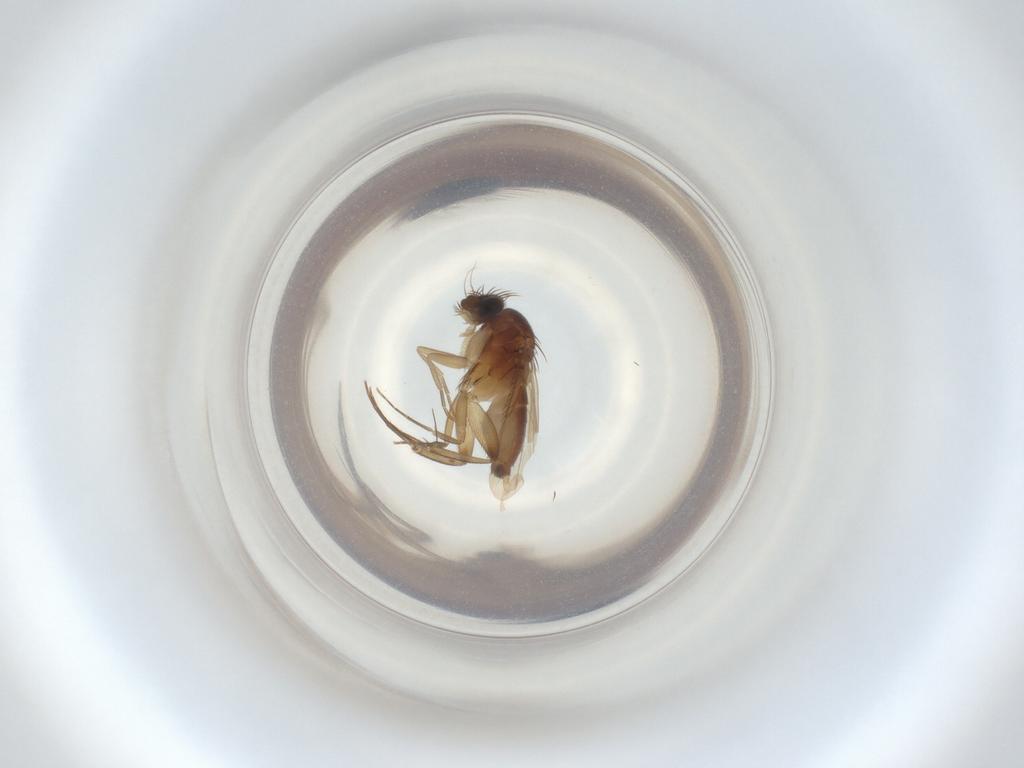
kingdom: Animalia
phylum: Arthropoda
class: Insecta
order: Diptera
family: Phoridae
